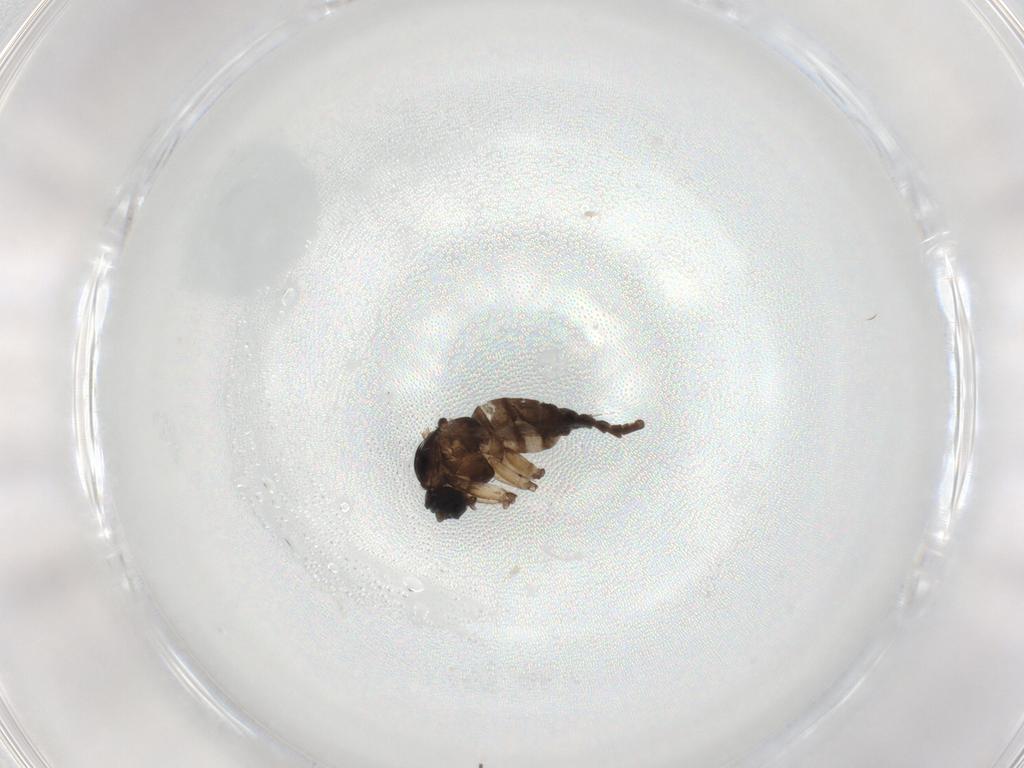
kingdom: Animalia
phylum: Arthropoda
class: Insecta
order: Diptera
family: Sciaridae
